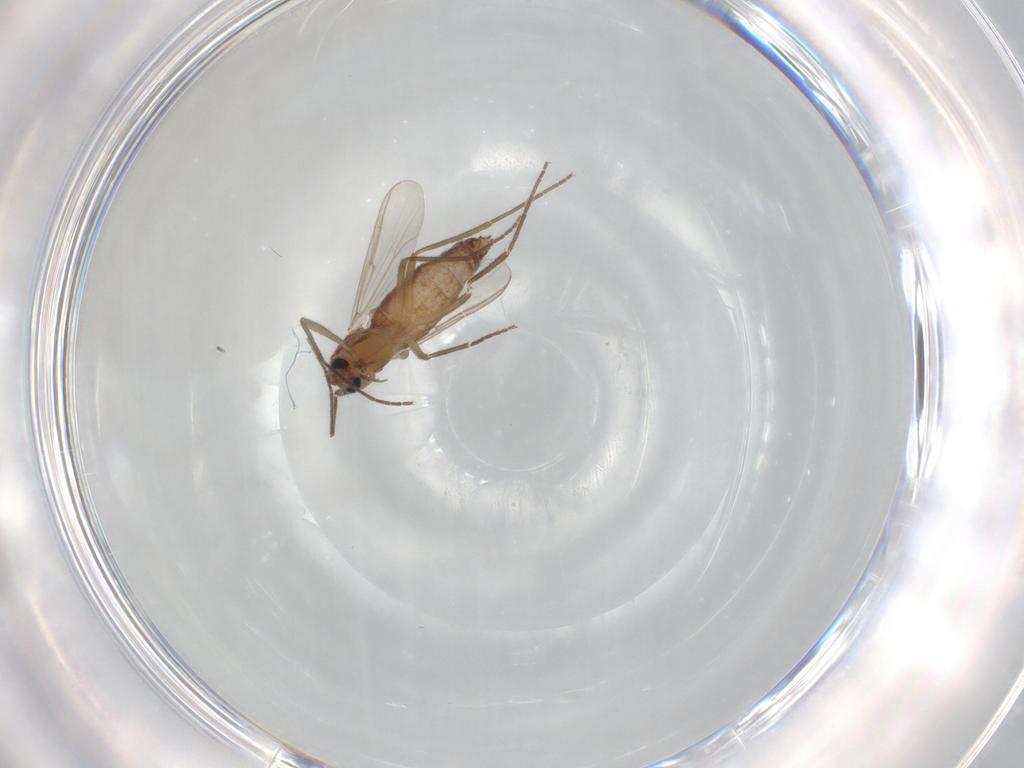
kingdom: Animalia
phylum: Arthropoda
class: Insecta
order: Diptera
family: Chironomidae
